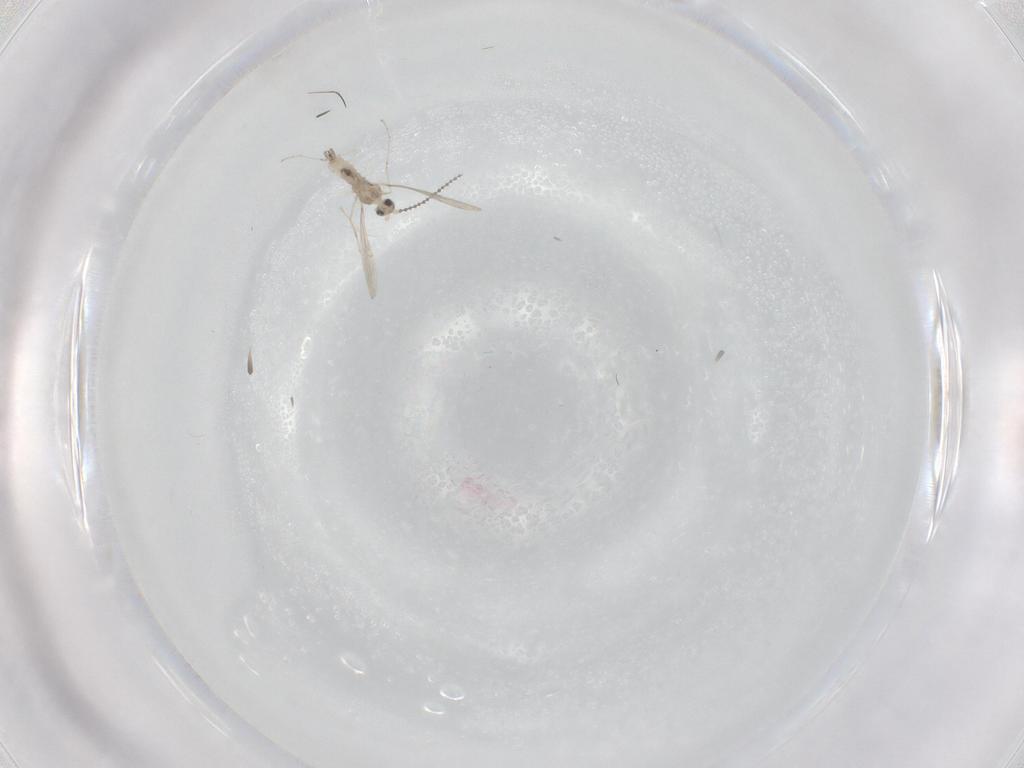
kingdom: Animalia
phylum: Arthropoda
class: Insecta
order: Diptera
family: Cecidomyiidae
